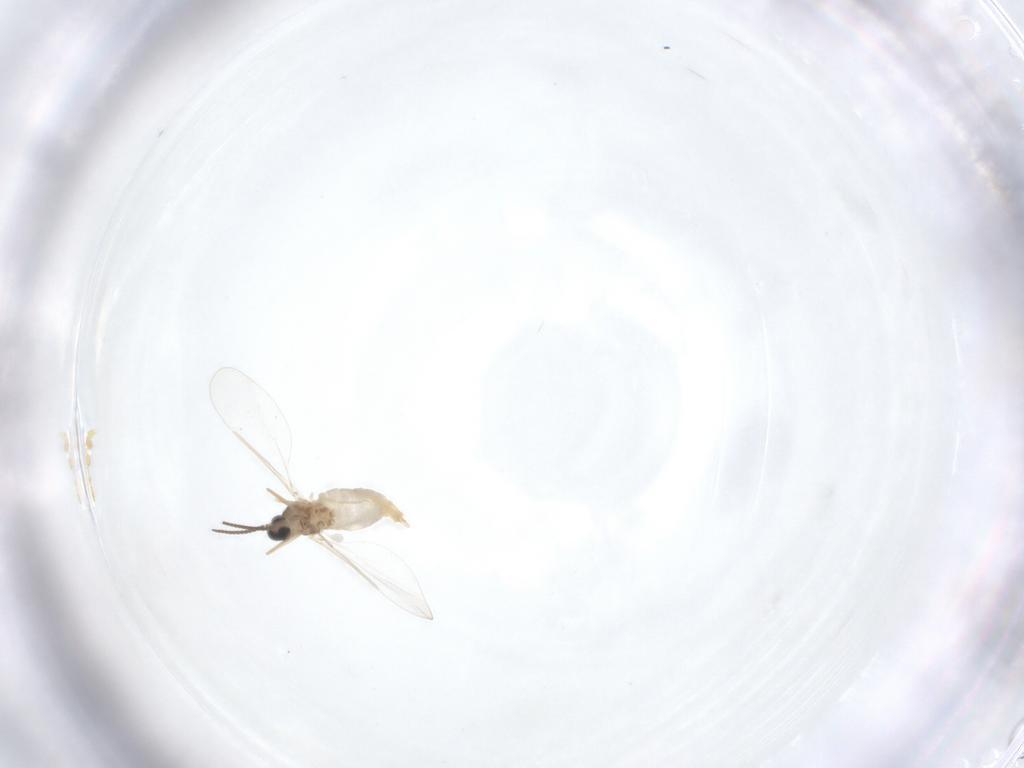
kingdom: Animalia
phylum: Arthropoda
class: Insecta
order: Diptera
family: Cecidomyiidae
